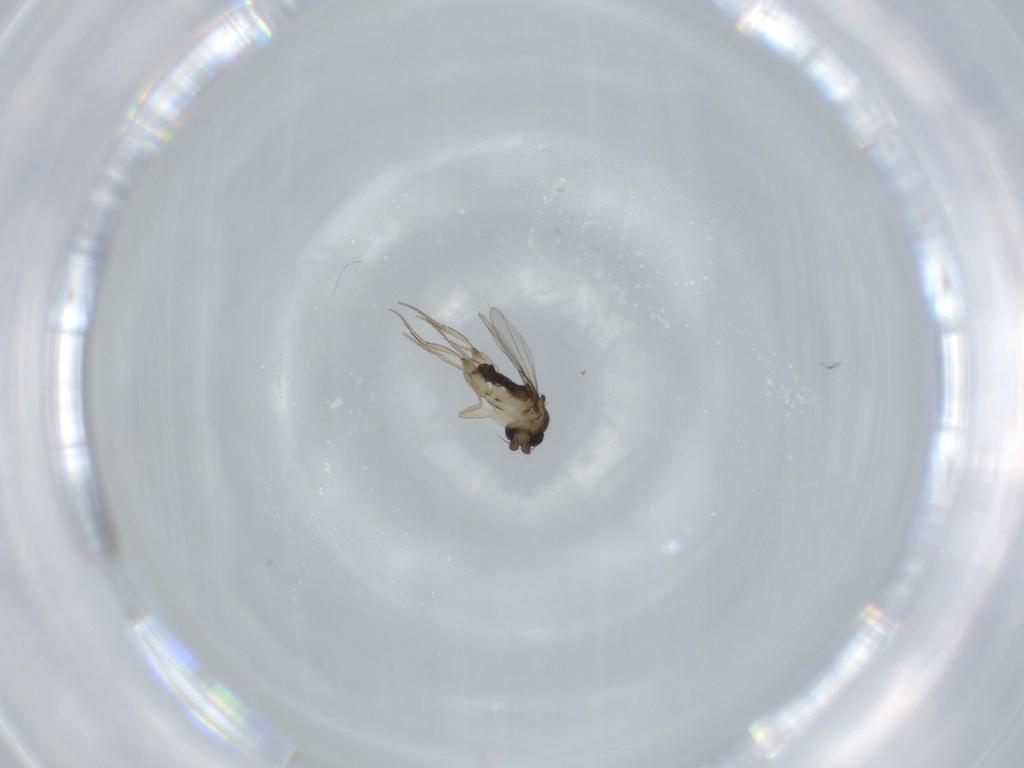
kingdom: Animalia
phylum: Arthropoda
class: Insecta
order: Diptera
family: Phoridae
